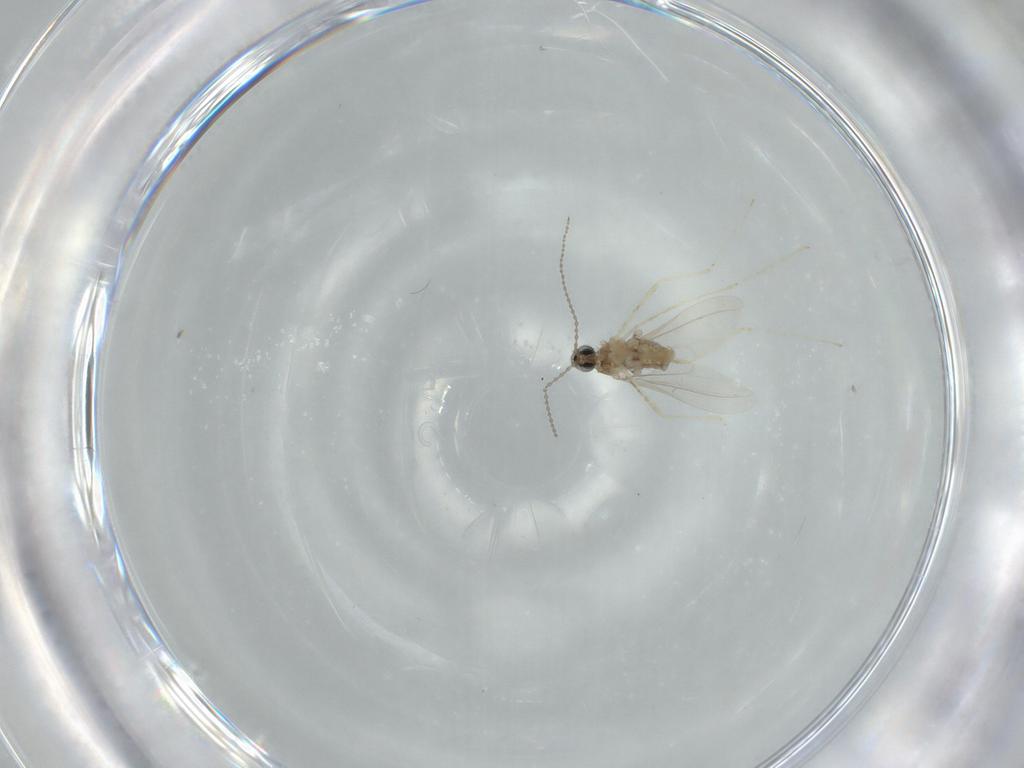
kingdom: Animalia
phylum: Arthropoda
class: Insecta
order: Diptera
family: Cecidomyiidae
